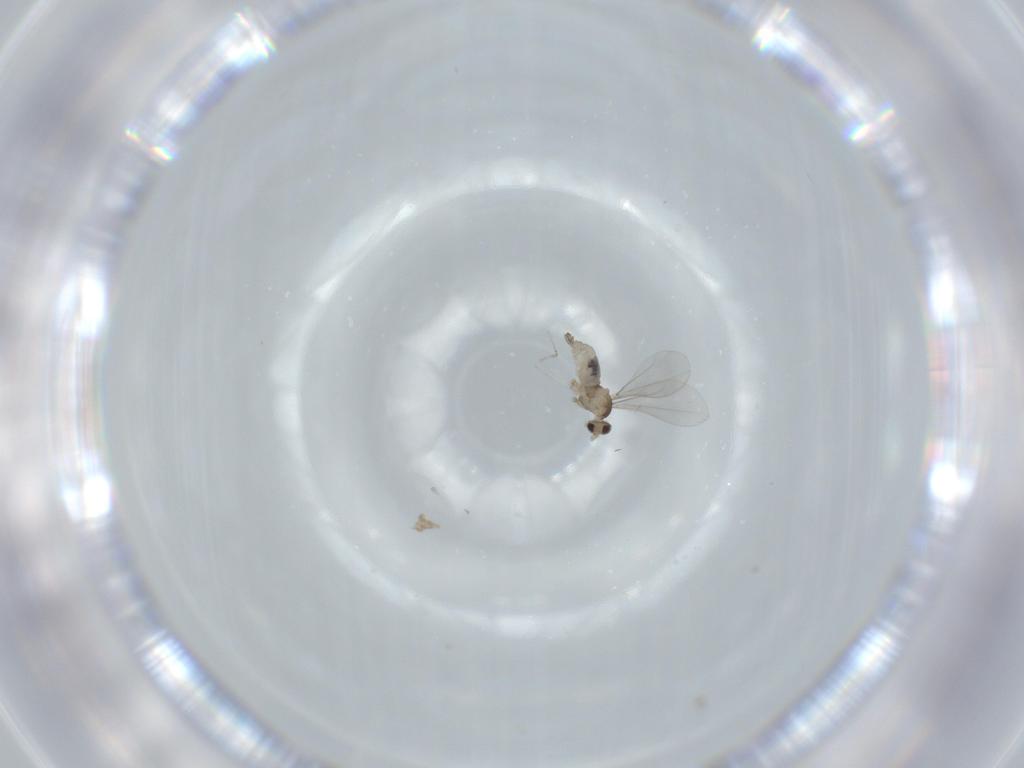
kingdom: Animalia
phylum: Arthropoda
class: Insecta
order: Diptera
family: Cecidomyiidae
